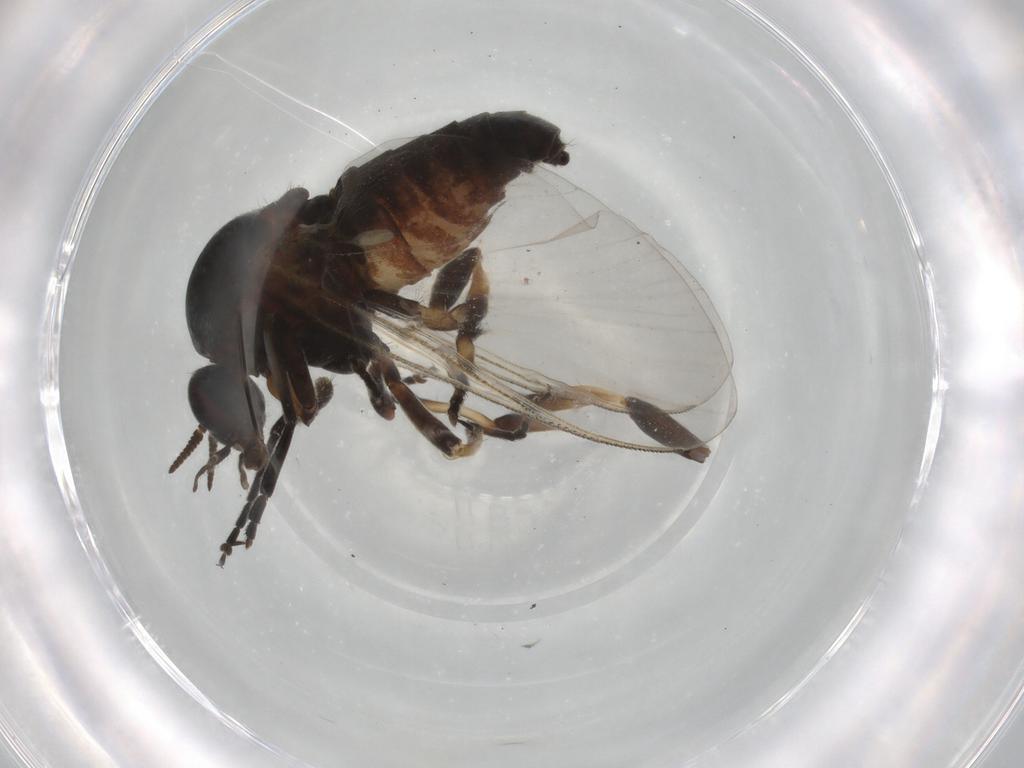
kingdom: Animalia
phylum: Arthropoda
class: Insecta
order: Diptera
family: Muscidae
